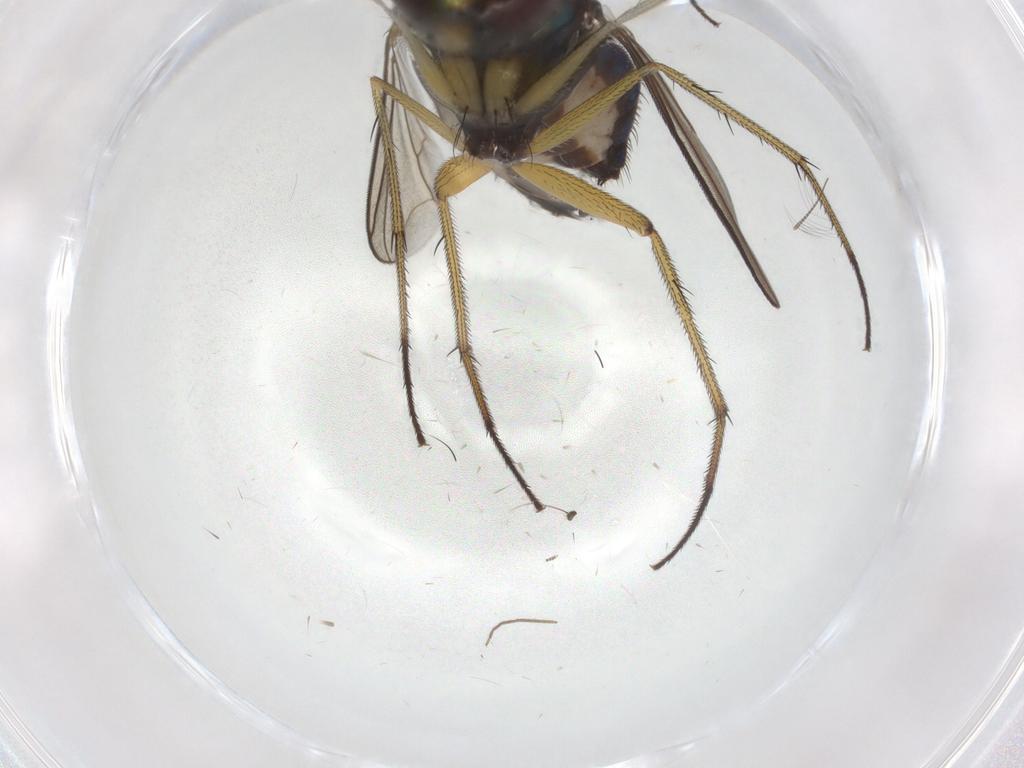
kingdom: Animalia
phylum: Arthropoda
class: Insecta
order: Diptera
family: Dolichopodidae
